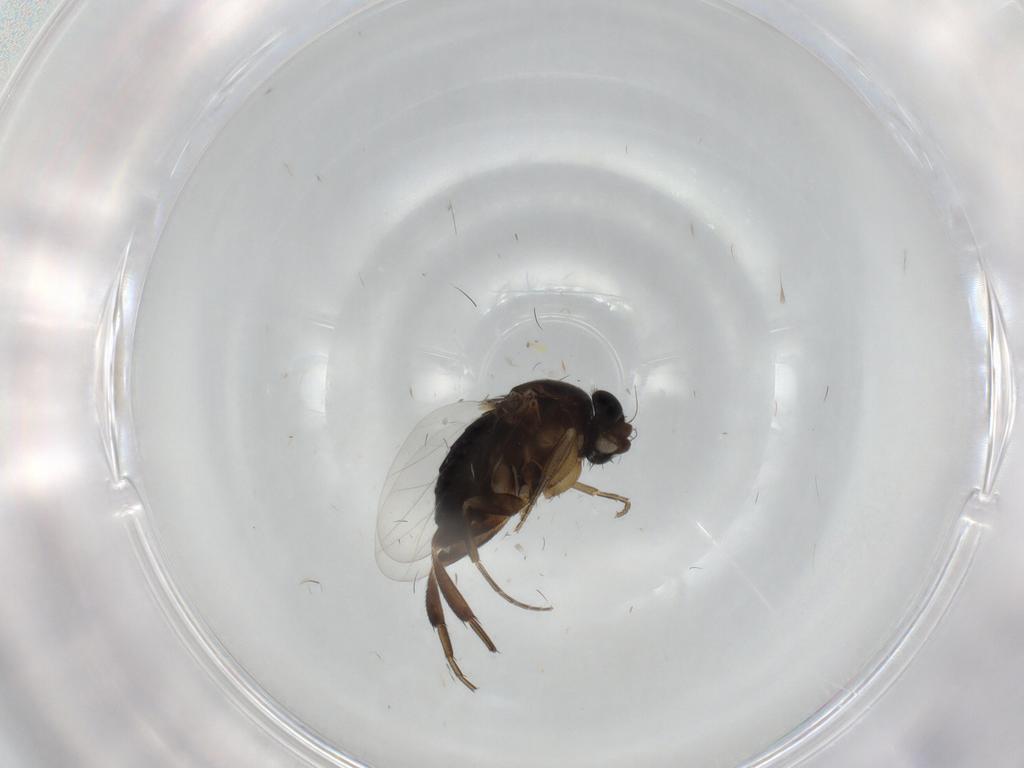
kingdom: Animalia
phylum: Arthropoda
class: Insecta
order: Diptera
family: Phoridae
